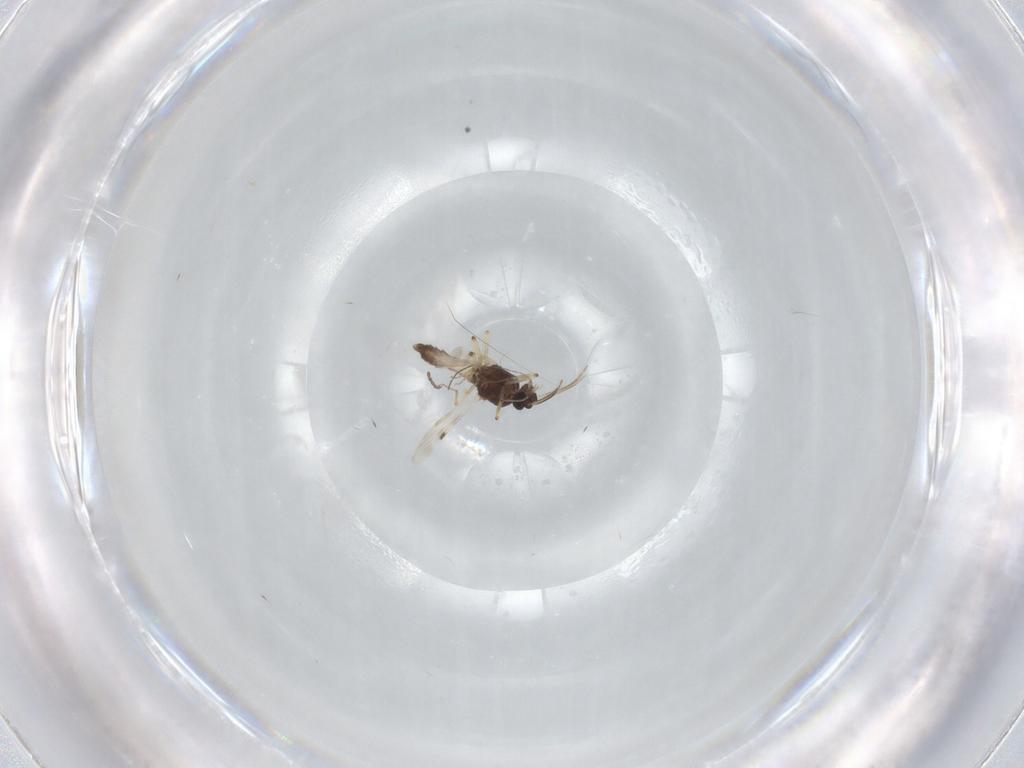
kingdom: Animalia
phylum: Arthropoda
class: Insecta
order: Diptera
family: Cecidomyiidae
